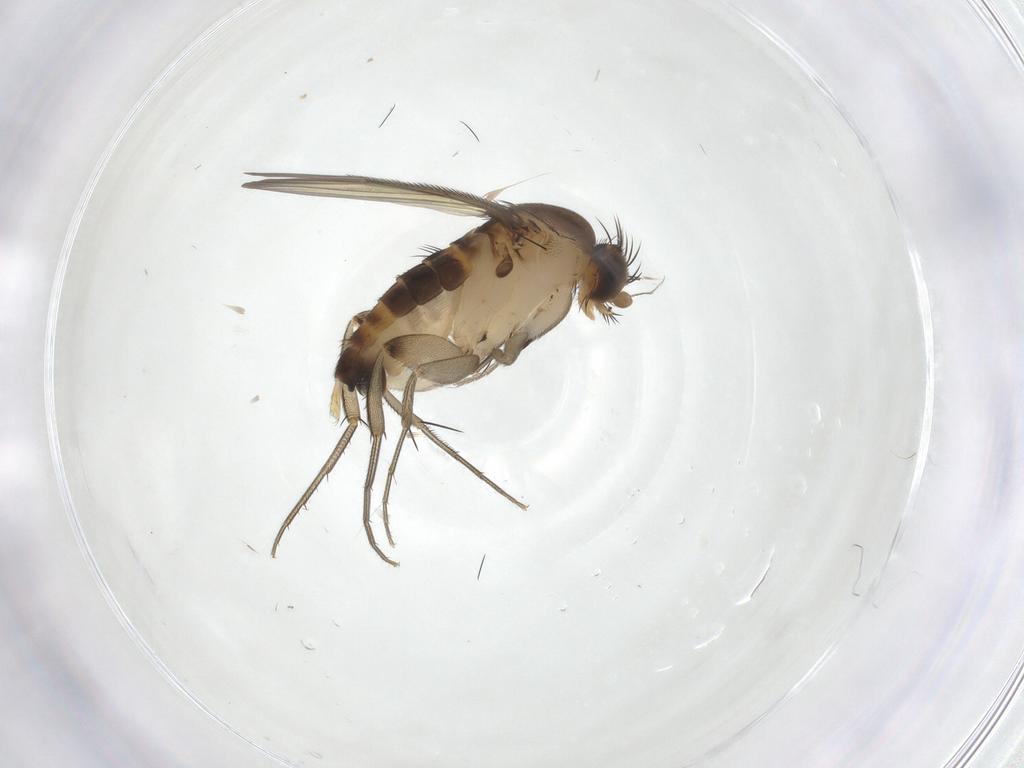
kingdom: Animalia
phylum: Arthropoda
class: Insecta
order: Diptera
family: Phoridae
